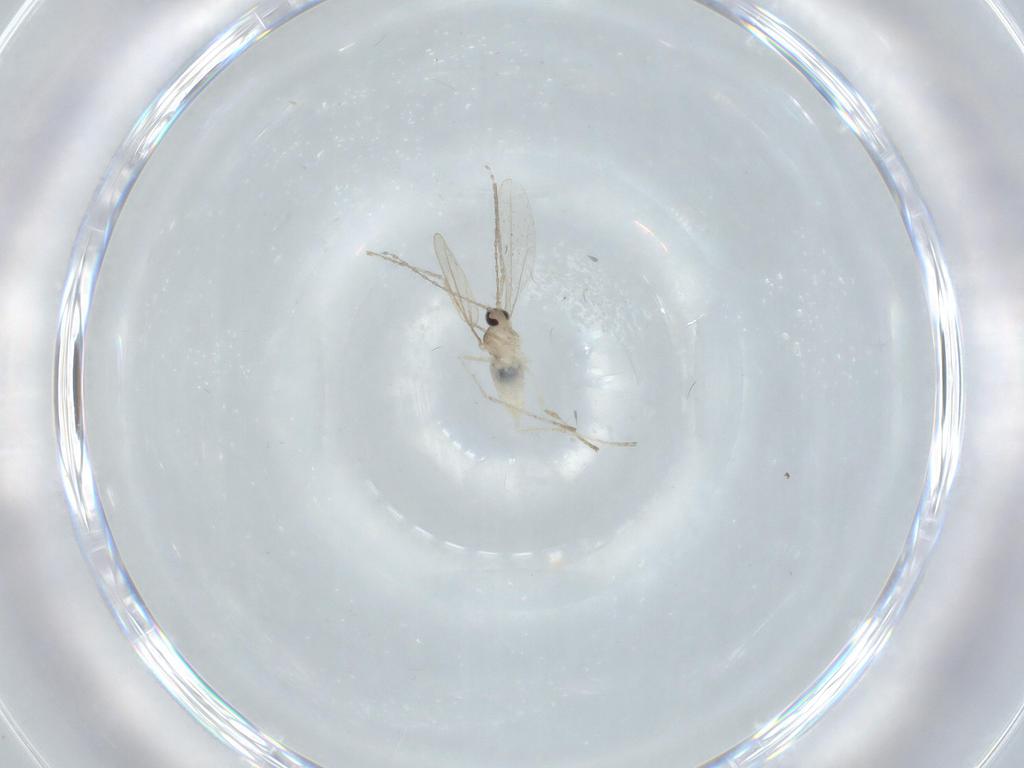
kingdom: Animalia
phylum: Arthropoda
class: Insecta
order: Diptera
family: Cecidomyiidae
